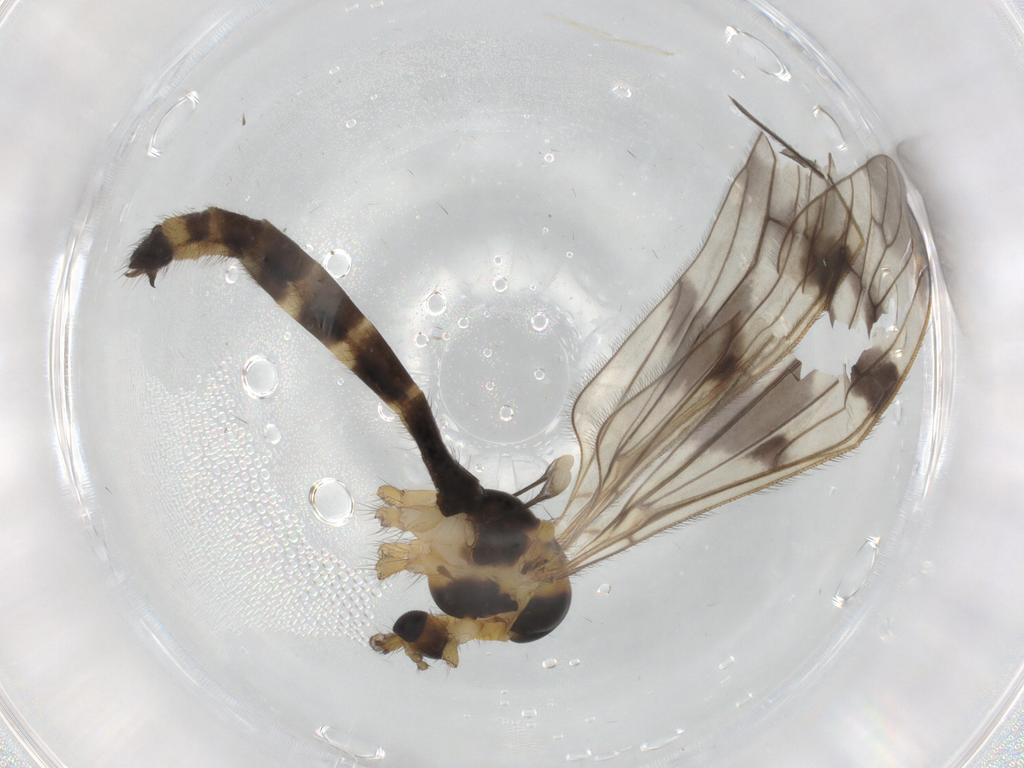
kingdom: Animalia
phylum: Arthropoda
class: Insecta
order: Diptera
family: Limoniidae
